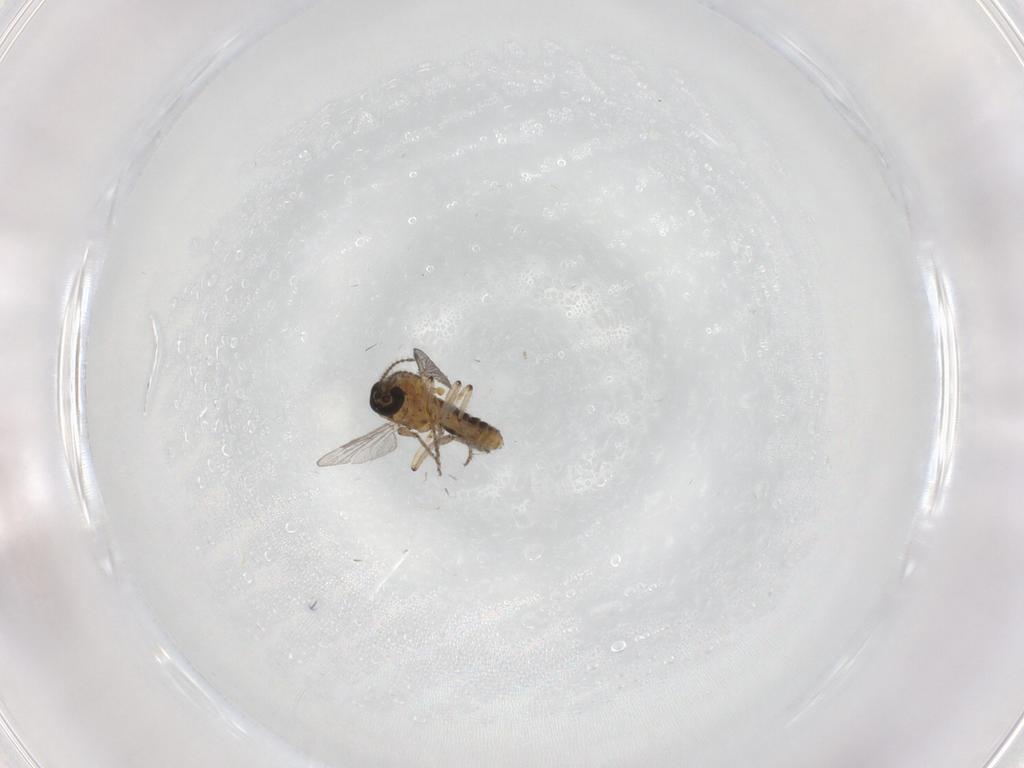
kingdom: Animalia
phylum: Arthropoda
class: Insecta
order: Diptera
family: Ceratopogonidae
